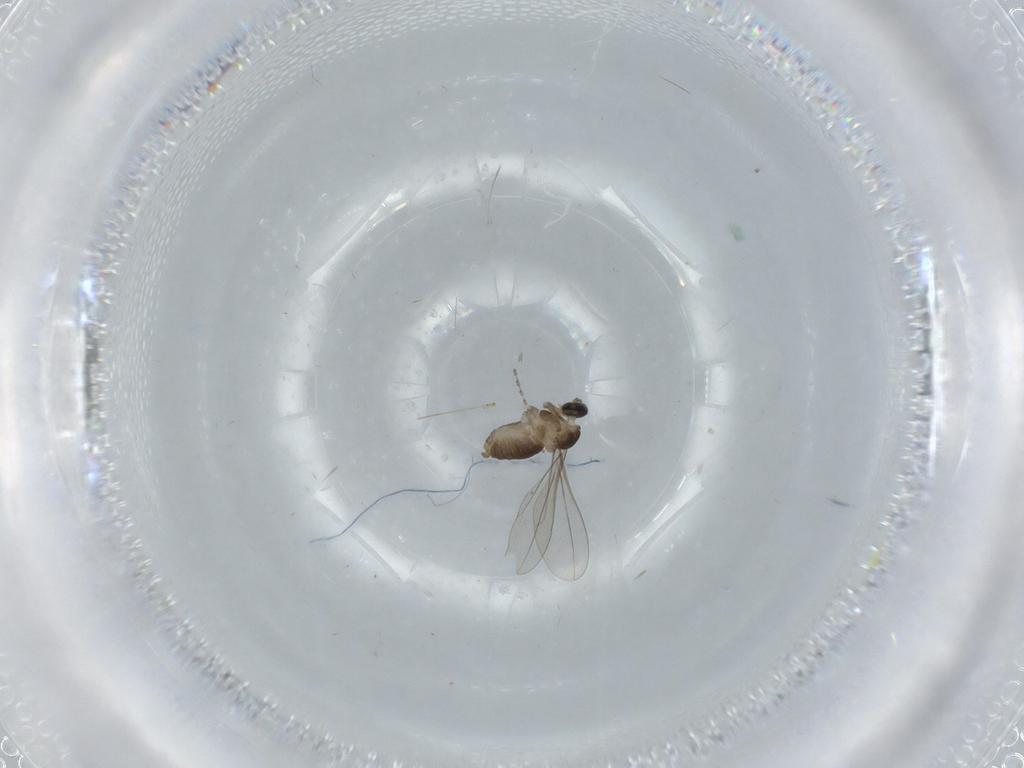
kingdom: Animalia
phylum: Arthropoda
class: Insecta
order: Diptera
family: Cecidomyiidae
